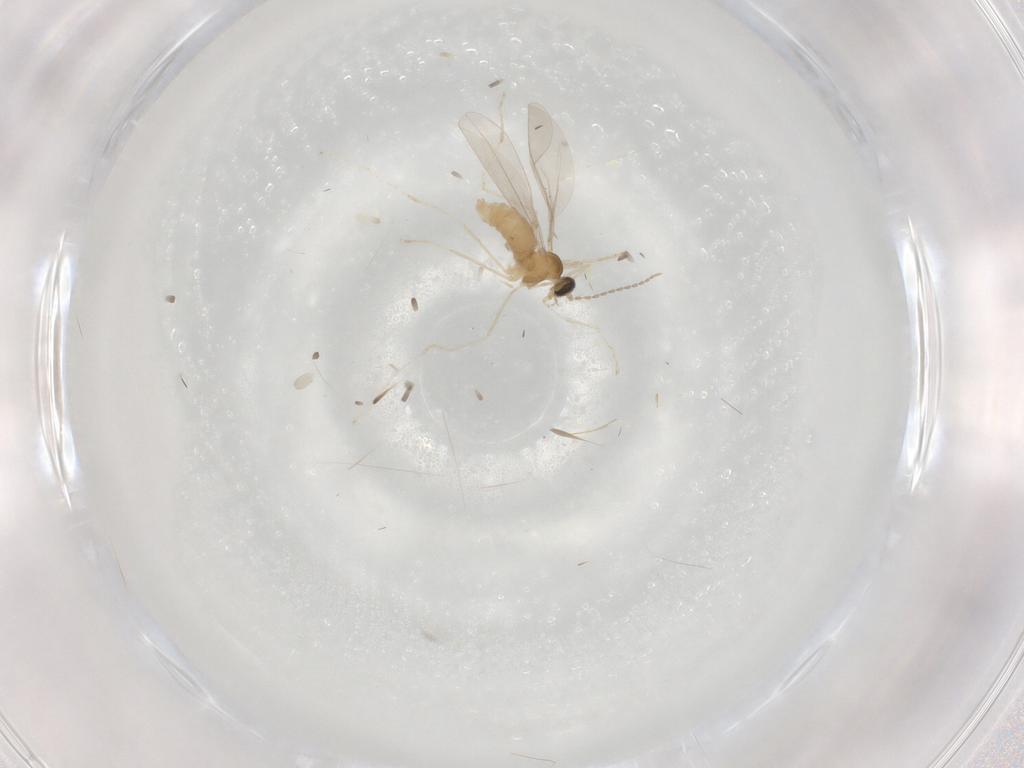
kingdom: Animalia
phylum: Arthropoda
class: Insecta
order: Diptera
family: Cecidomyiidae
